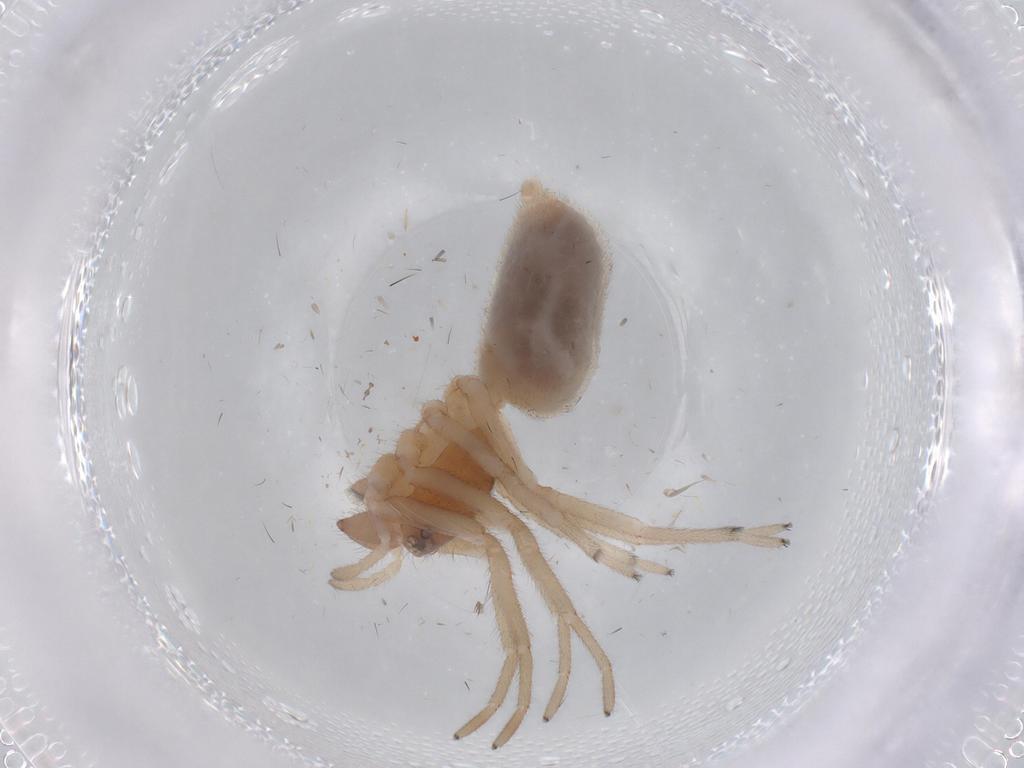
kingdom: Animalia
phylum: Arthropoda
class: Arachnida
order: Araneae
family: Trachelidae
